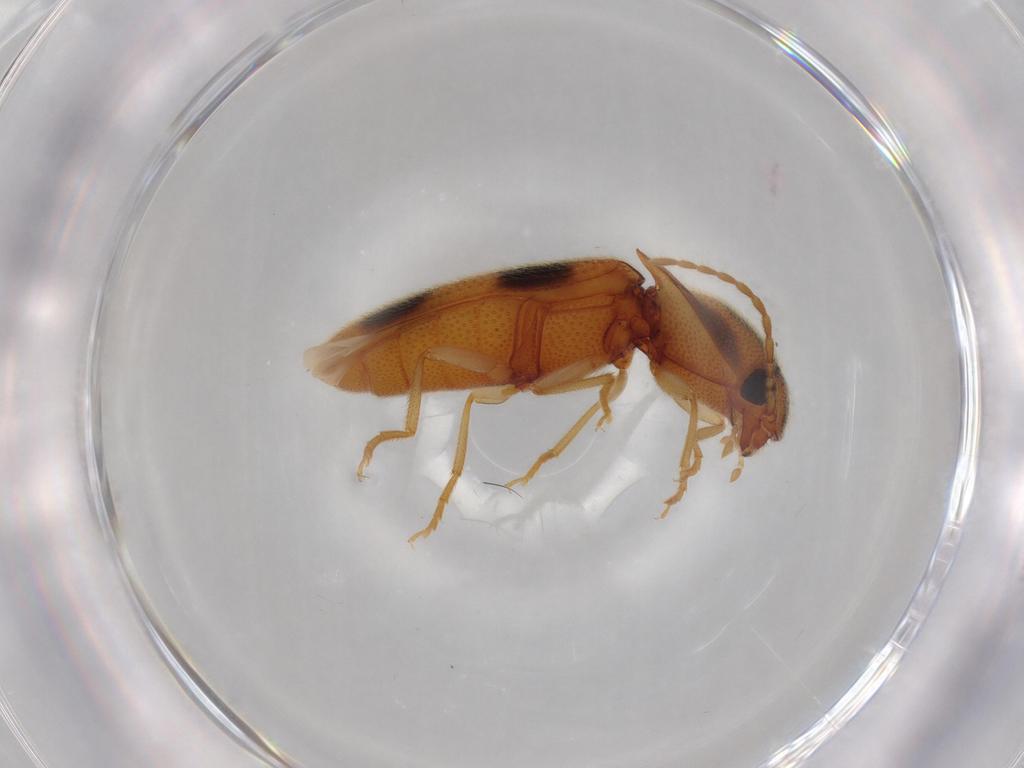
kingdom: Animalia
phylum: Arthropoda
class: Insecta
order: Coleoptera
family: Elateridae
